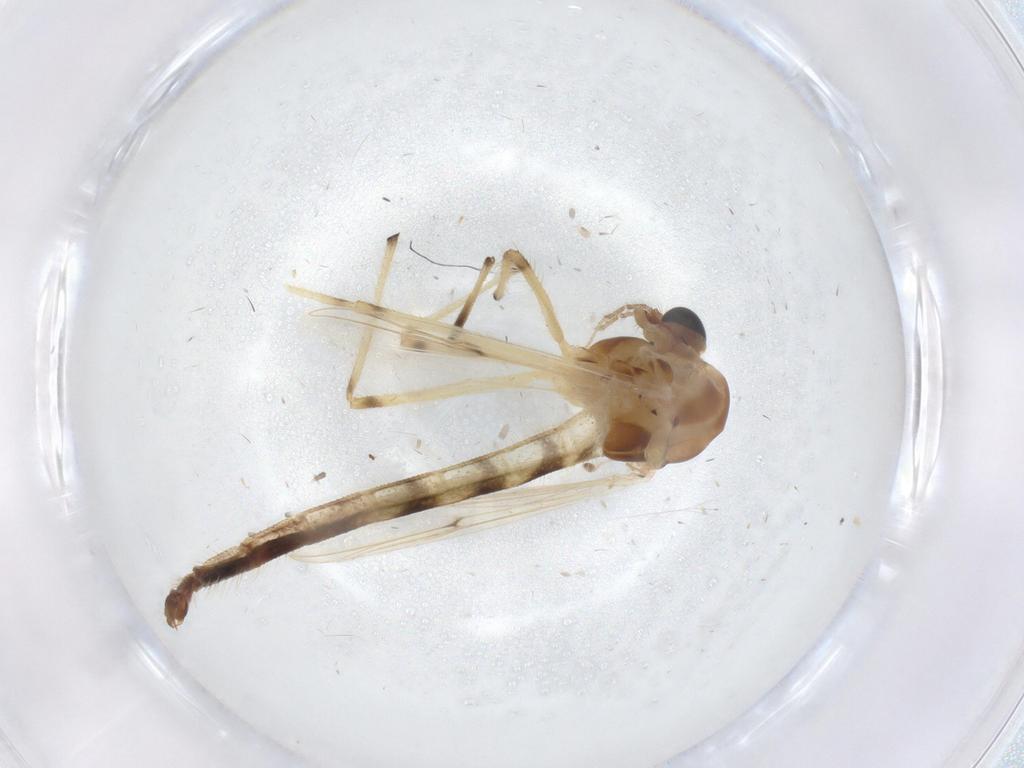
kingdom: Animalia
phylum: Arthropoda
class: Insecta
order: Diptera
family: Chironomidae
